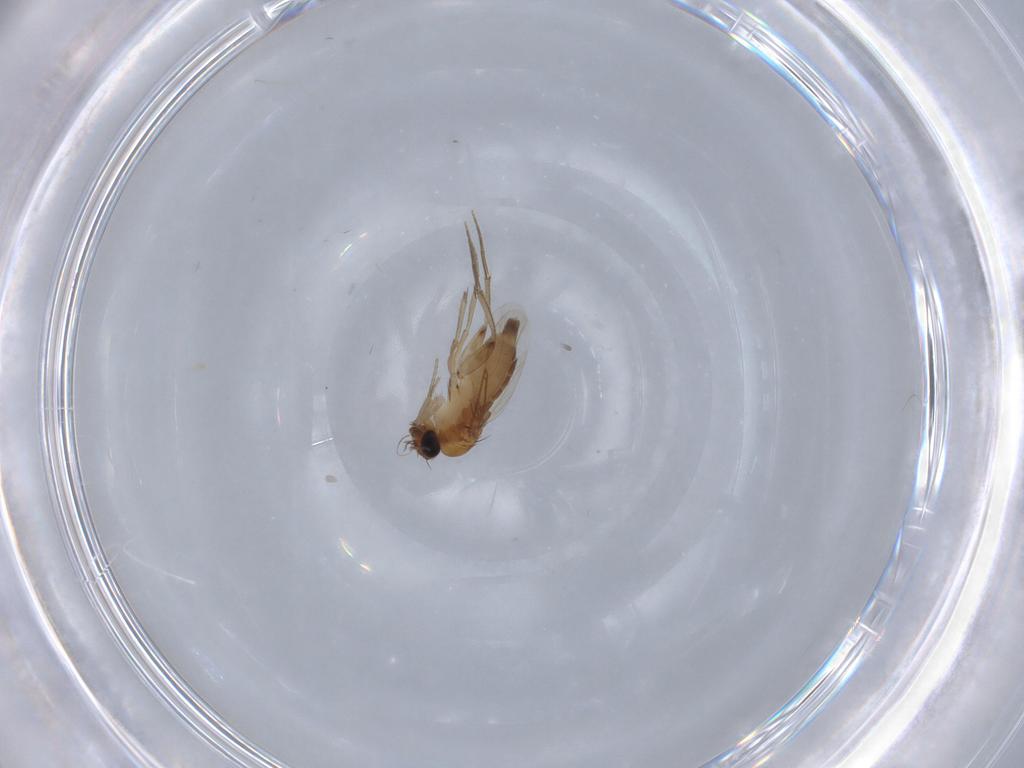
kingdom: Animalia
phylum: Arthropoda
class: Insecta
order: Diptera
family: Phoridae
